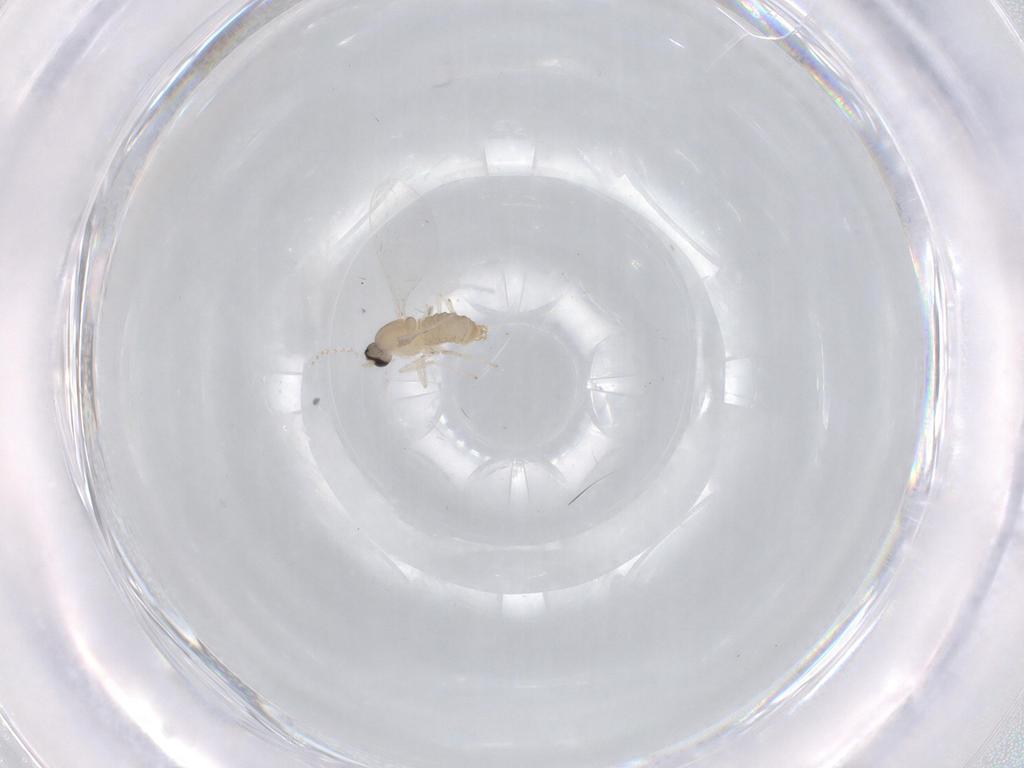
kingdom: Animalia
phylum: Arthropoda
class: Insecta
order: Diptera
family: Cecidomyiidae
